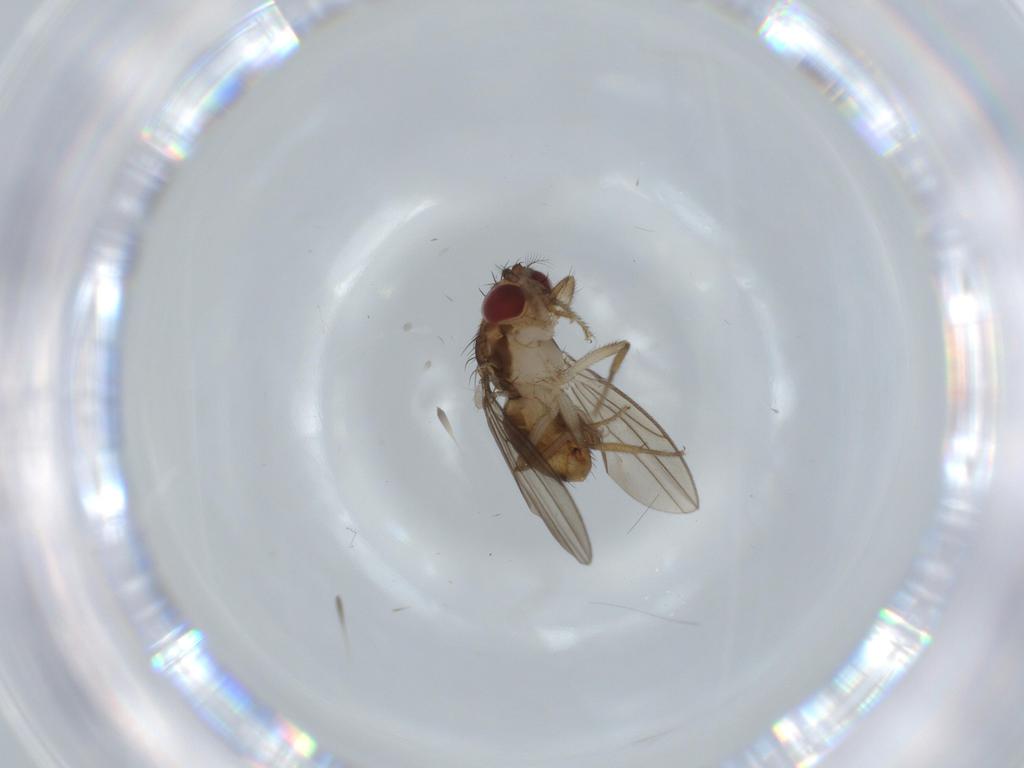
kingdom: Animalia
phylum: Arthropoda
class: Insecta
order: Diptera
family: Drosophilidae
